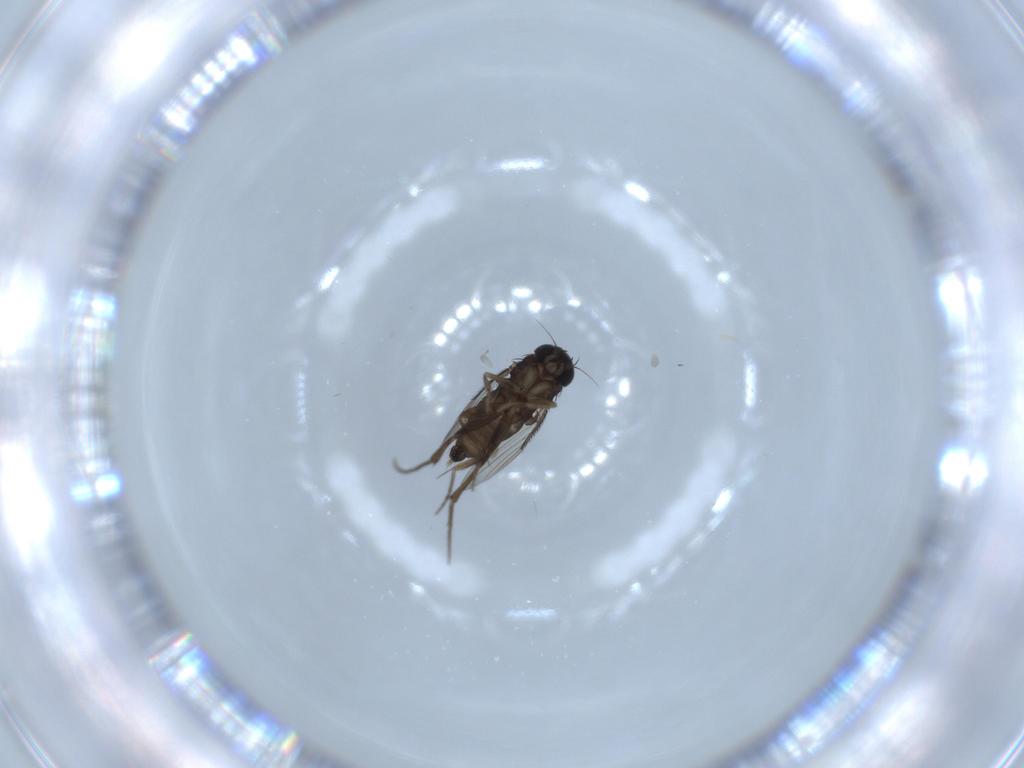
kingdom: Animalia
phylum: Arthropoda
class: Insecta
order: Diptera
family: Phoridae
